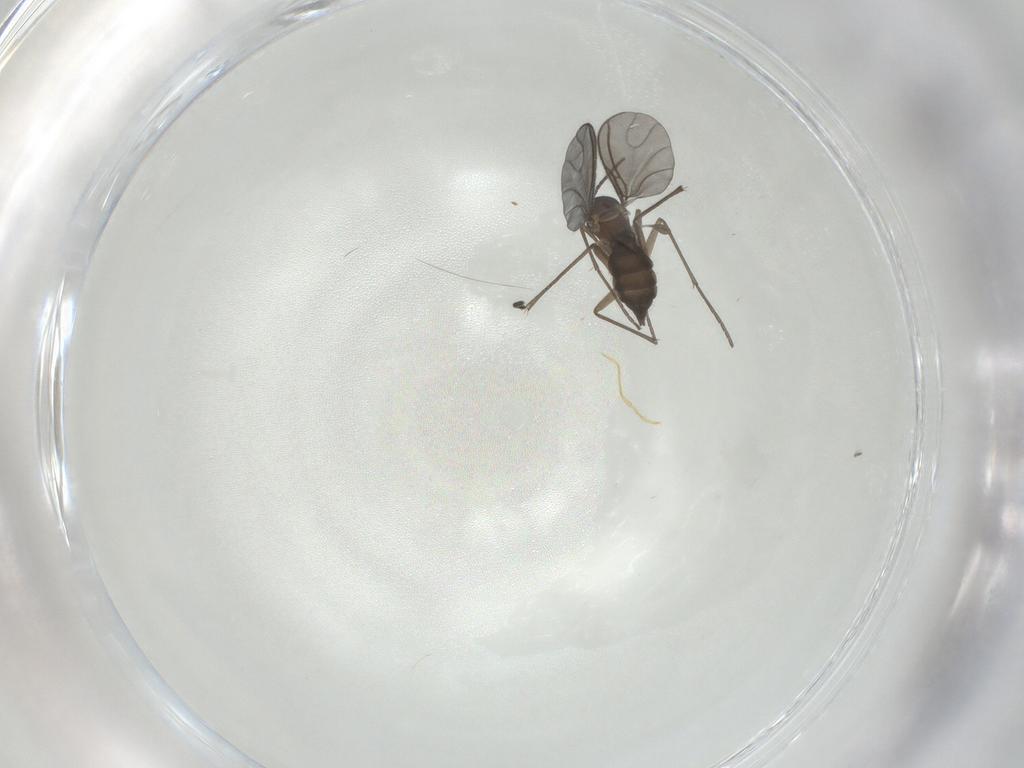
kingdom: Animalia
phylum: Arthropoda
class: Insecta
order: Diptera
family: Sciaridae
